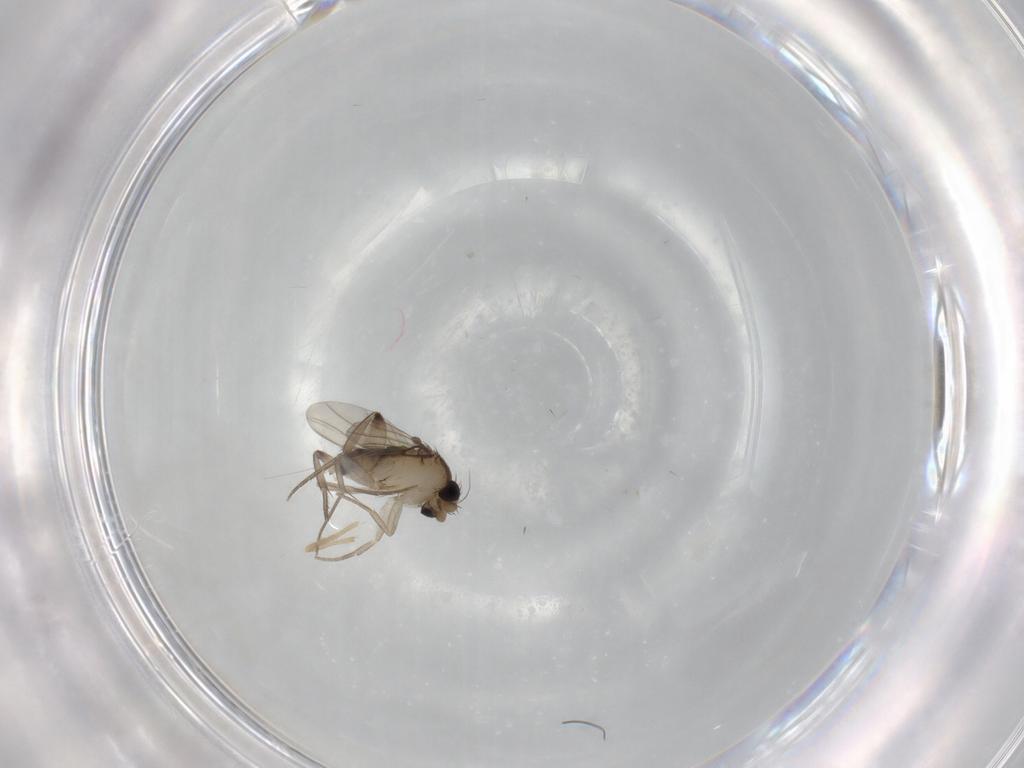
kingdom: Animalia
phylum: Arthropoda
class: Insecta
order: Diptera
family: Phoridae
